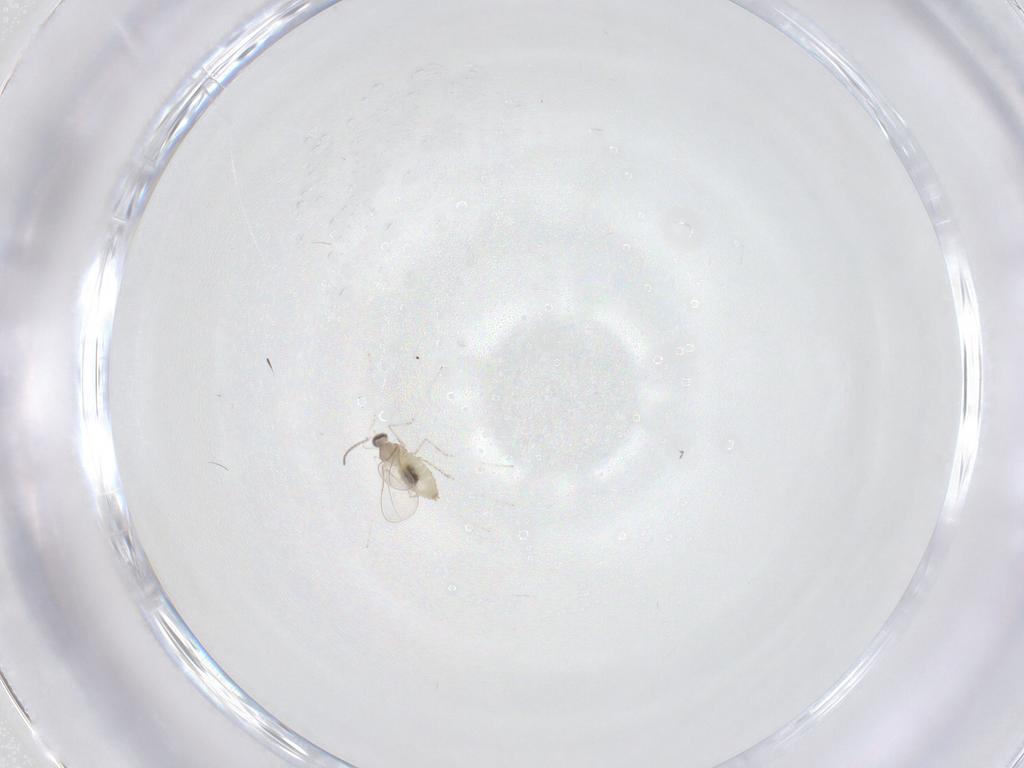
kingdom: Animalia
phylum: Arthropoda
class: Insecta
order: Diptera
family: Cecidomyiidae
